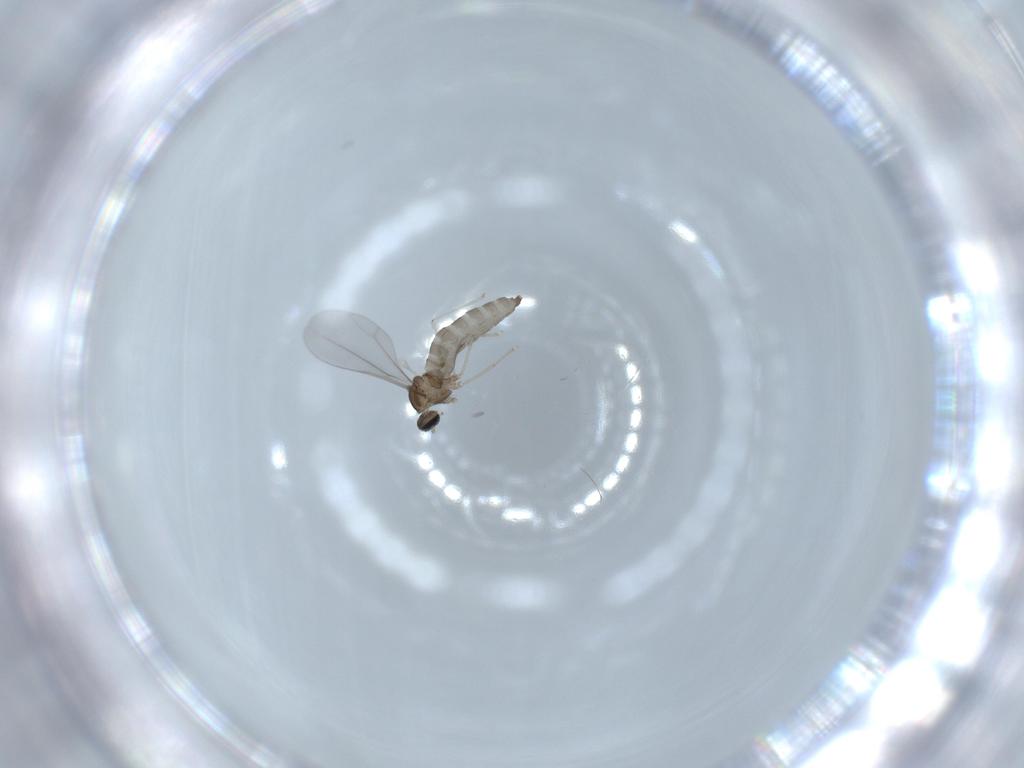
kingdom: Animalia
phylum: Arthropoda
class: Insecta
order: Diptera
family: Cecidomyiidae
